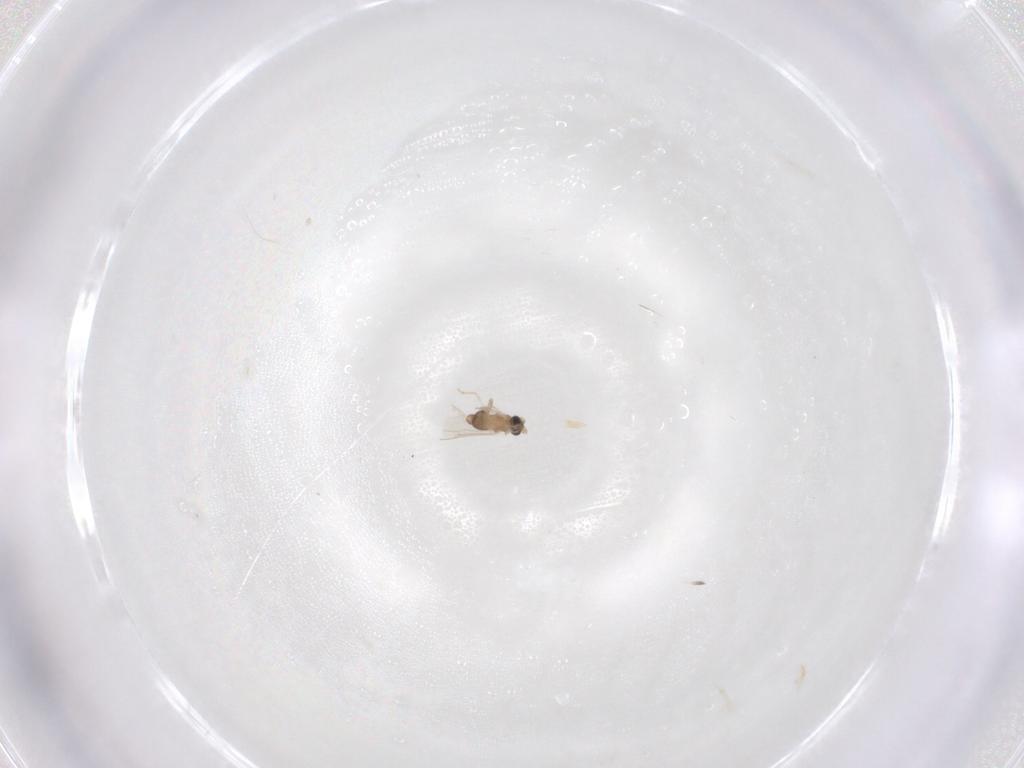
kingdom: Animalia
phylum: Arthropoda
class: Insecta
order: Diptera
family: Cecidomyiidae
